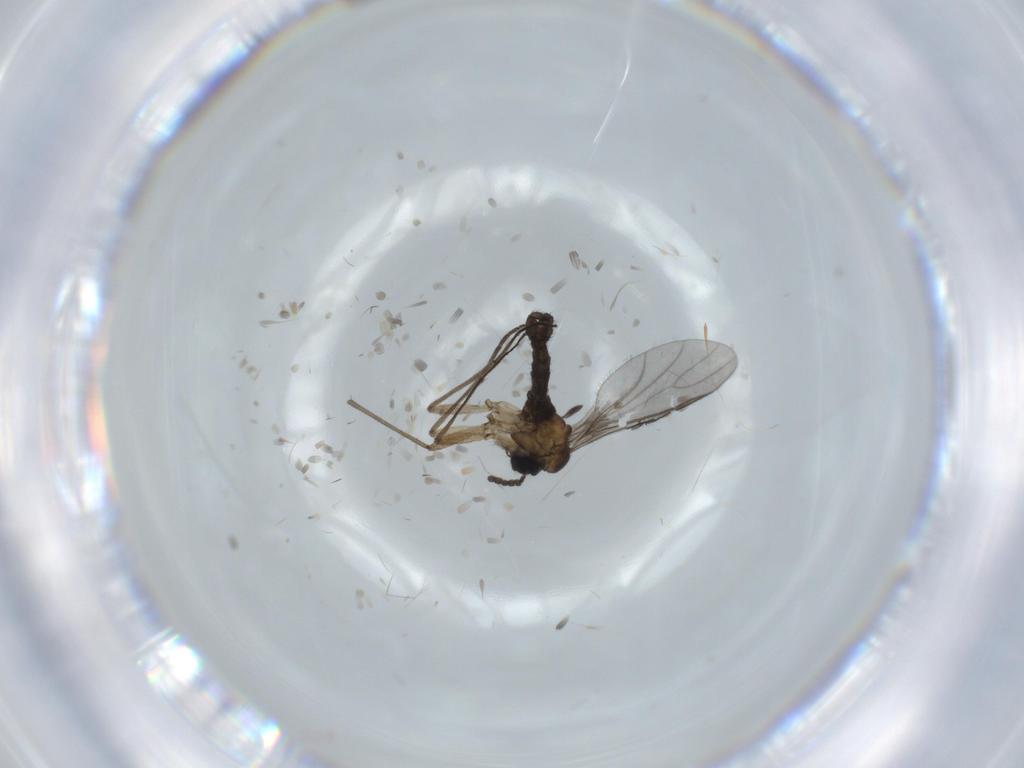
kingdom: Animalia
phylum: Arthropoda
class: Insecta
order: Diptera
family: Sciaridae
